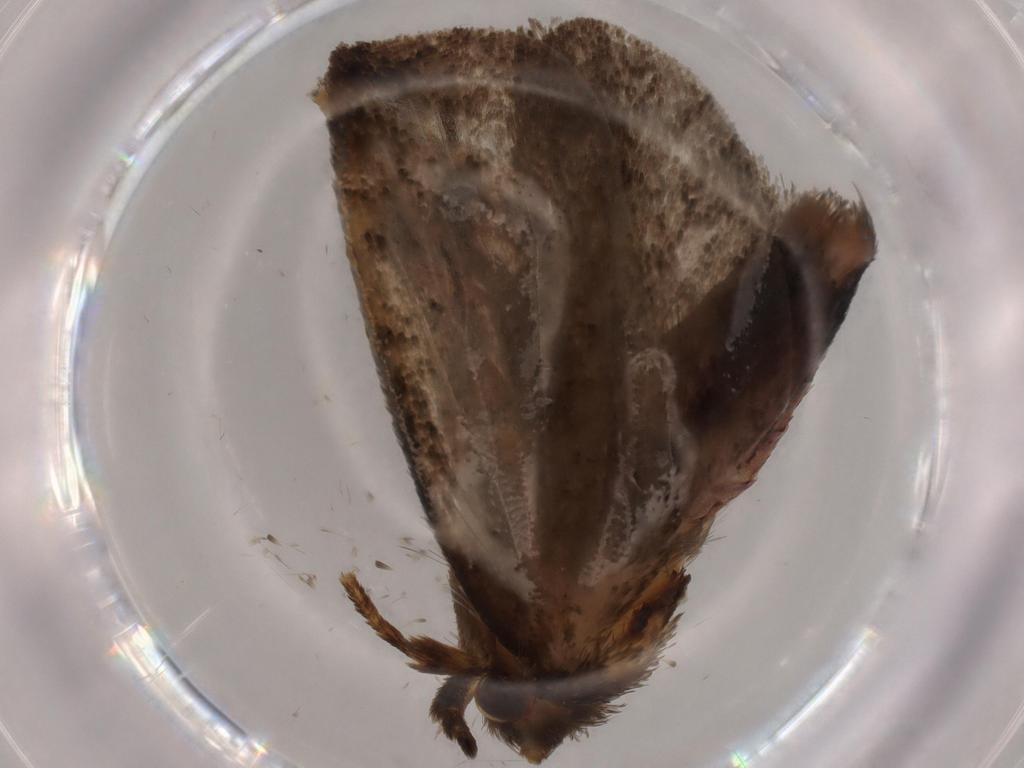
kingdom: Animalia
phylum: Arthropoda
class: Insecta
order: Lepidoptera
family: Tineidae
